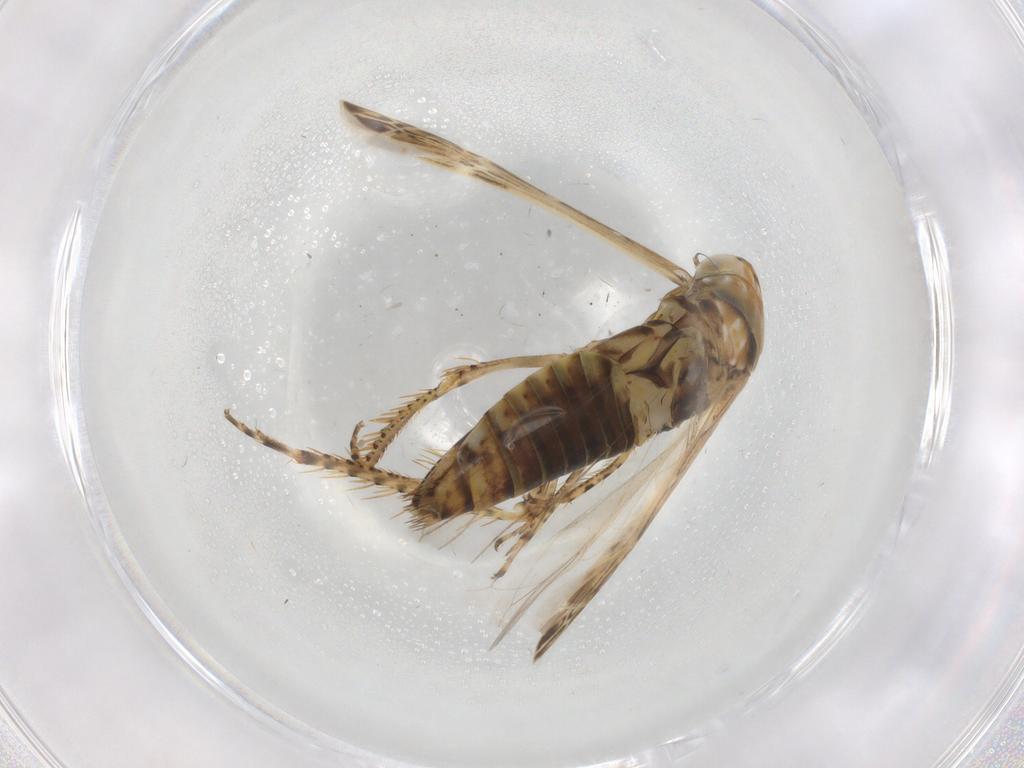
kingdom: Animalia
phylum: Arthropoda
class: Insecta
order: Hemiptera
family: Cicadellidae
